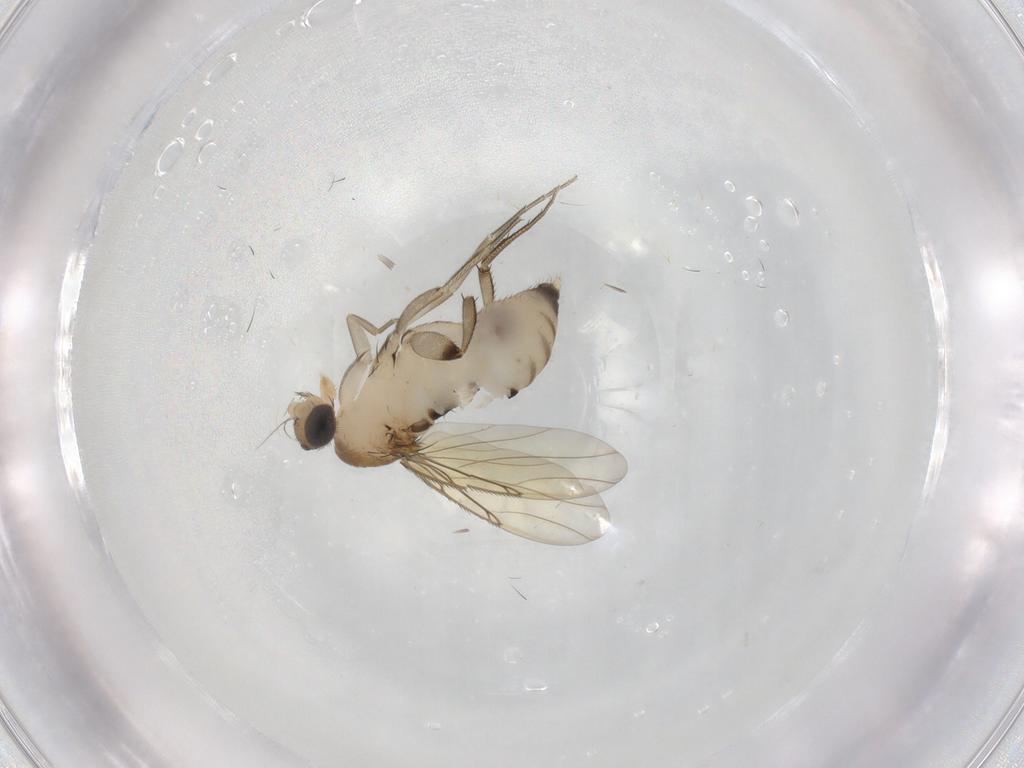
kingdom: Animalia
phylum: Arthropoda
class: Insecta
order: Diptera
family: Phoridae
